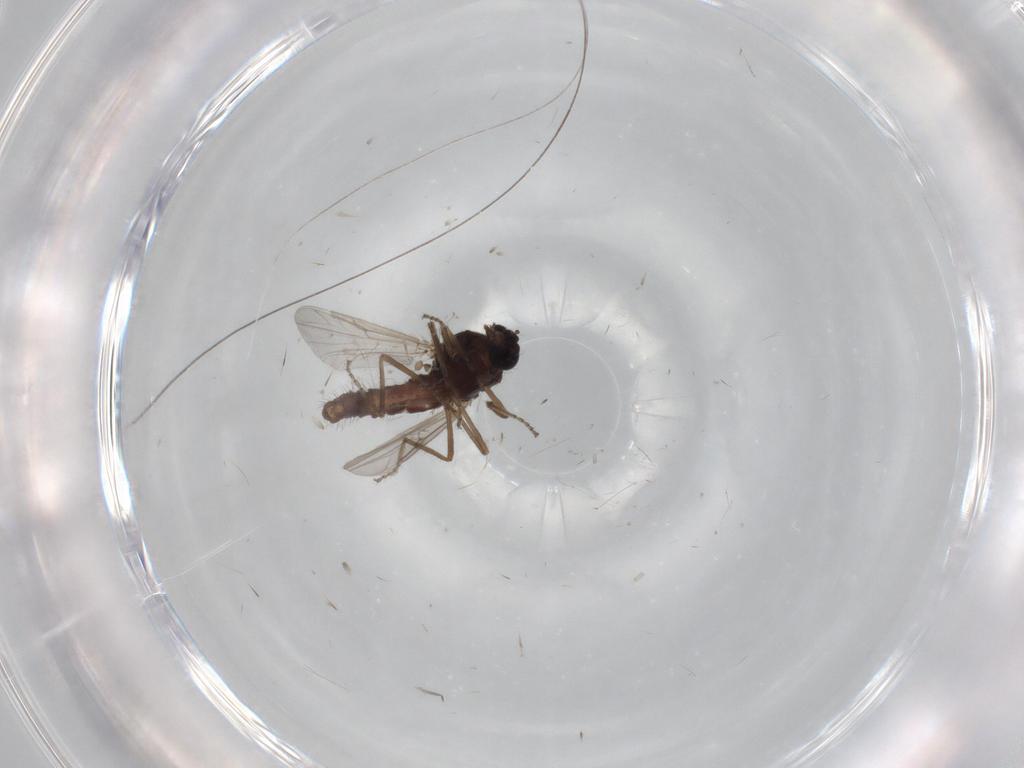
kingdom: Animalia
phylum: Arthropoda
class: Insecta
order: Diptera
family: Ceratopogonidae
